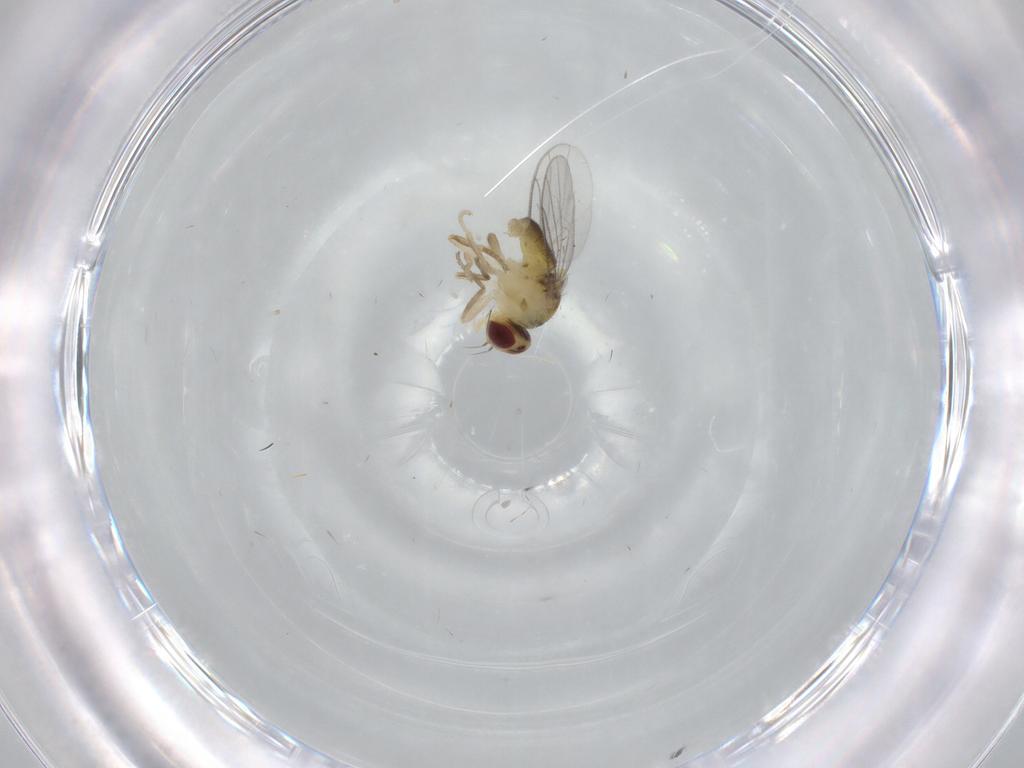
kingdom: Animalia
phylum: Arthropoda
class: Insecta
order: Diptera
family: Chloropidae
